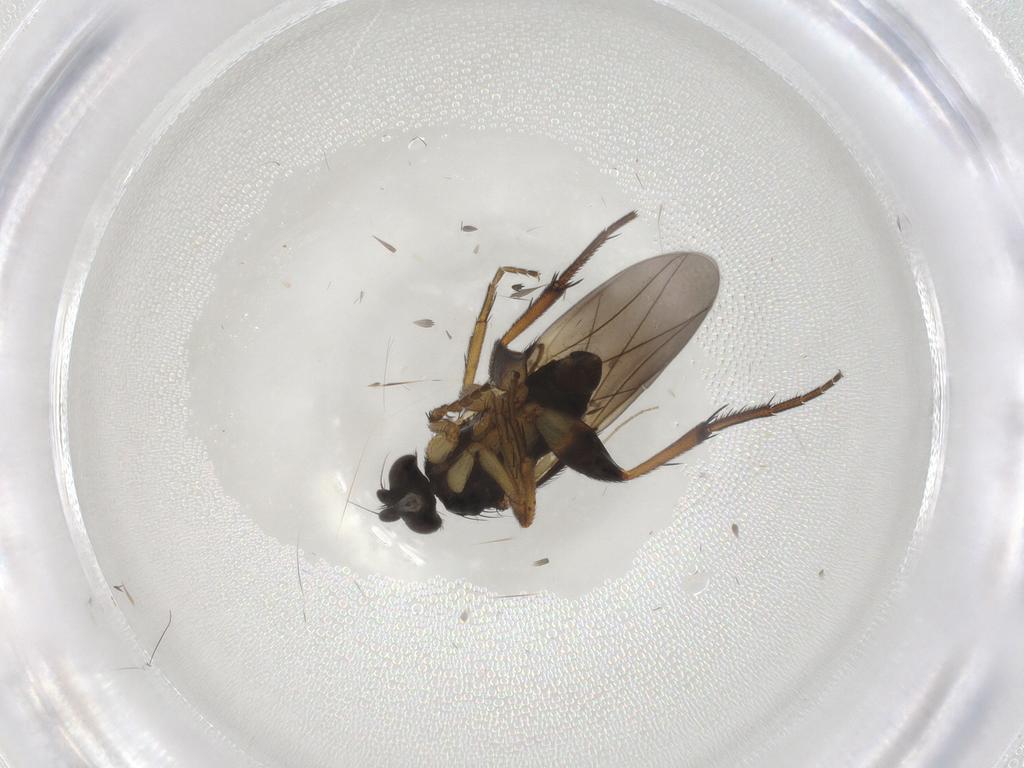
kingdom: Animalia
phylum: Arthropoda
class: Insecta
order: Diptera
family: Phoridae
